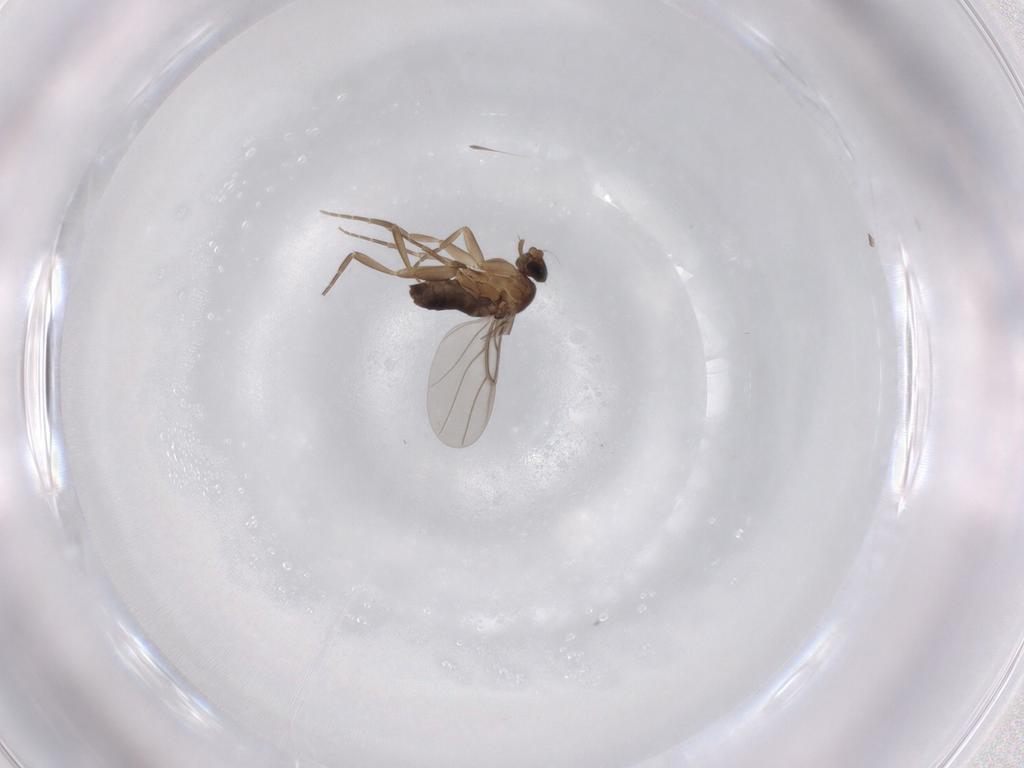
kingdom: Animalia
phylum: Arthropoda
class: Insecta
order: Diptera
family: Phoridae
